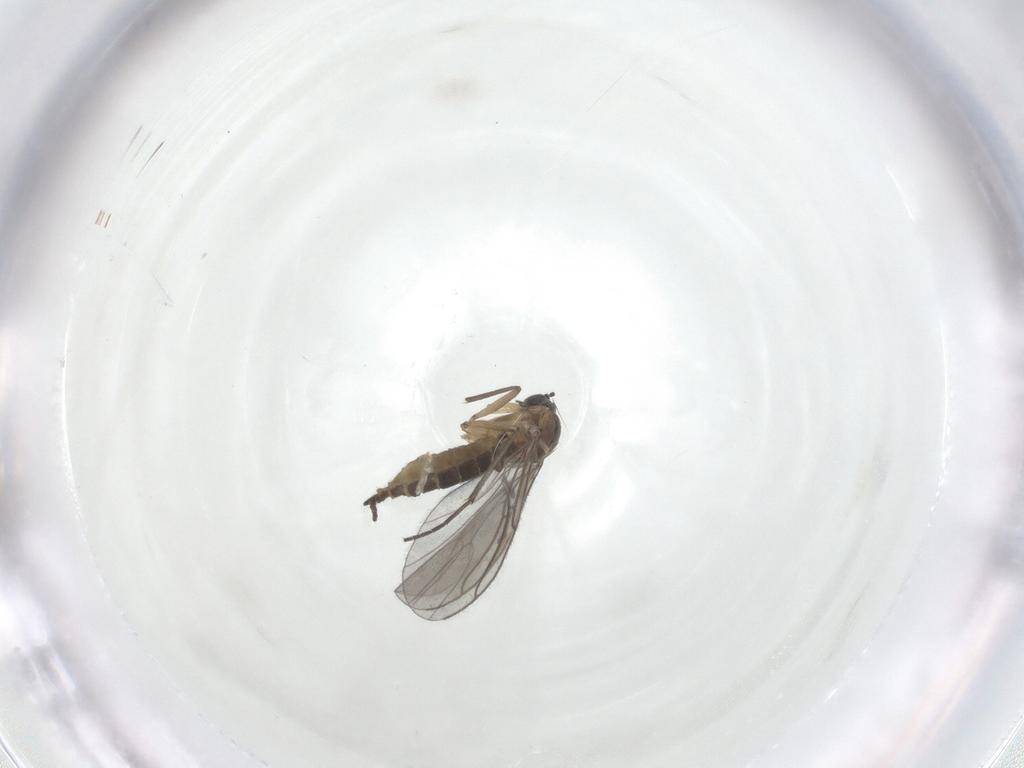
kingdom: Animalia
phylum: Arthropoda
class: Insecta
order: Diptera
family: Sciaridae
